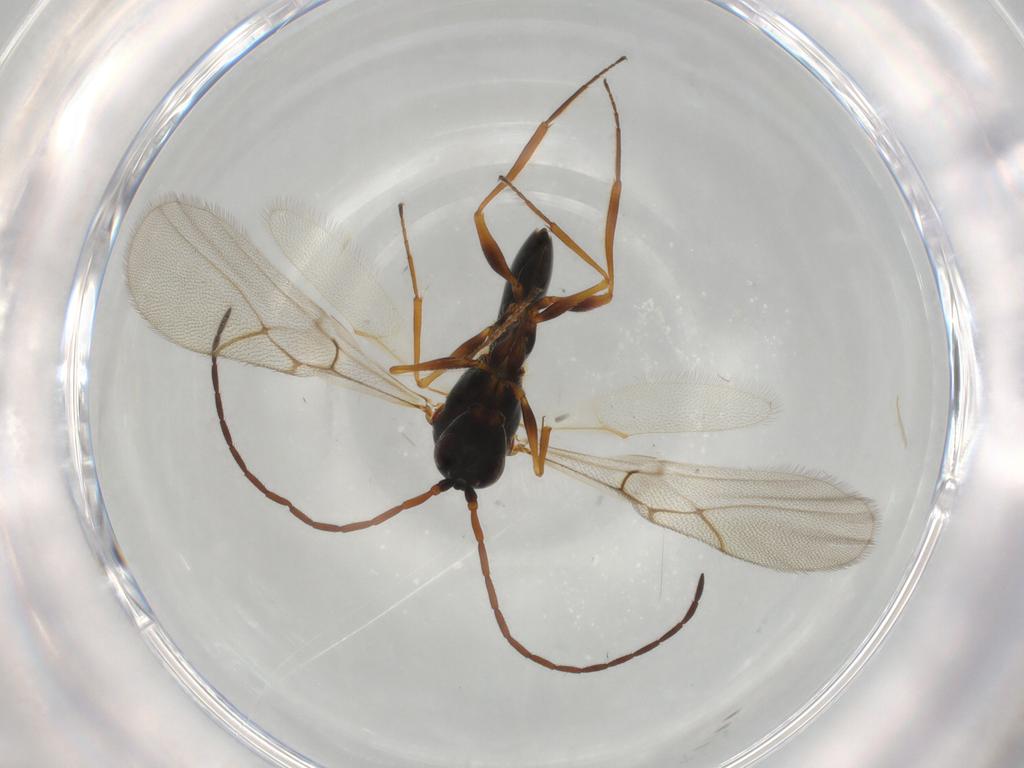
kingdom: Animalia
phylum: Arthropoda
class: Insecta
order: Hymenoptera
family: Figitidae
